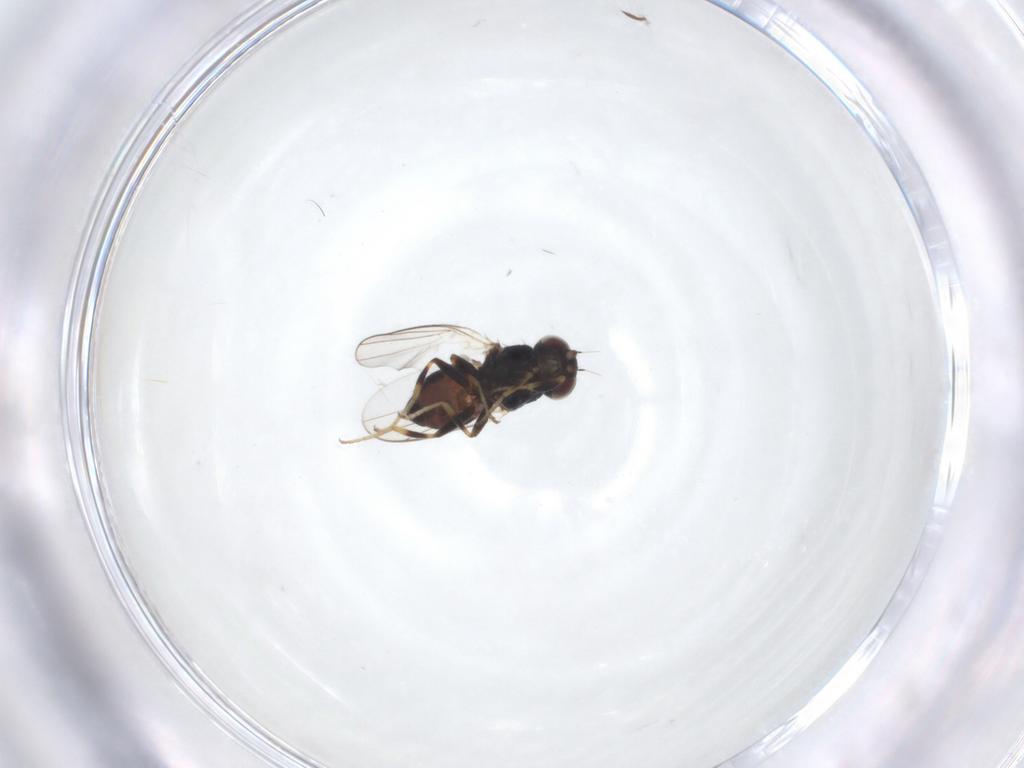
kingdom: Animalia
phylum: Arthropoda
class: Insecta
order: Diptera
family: Chloropidae
